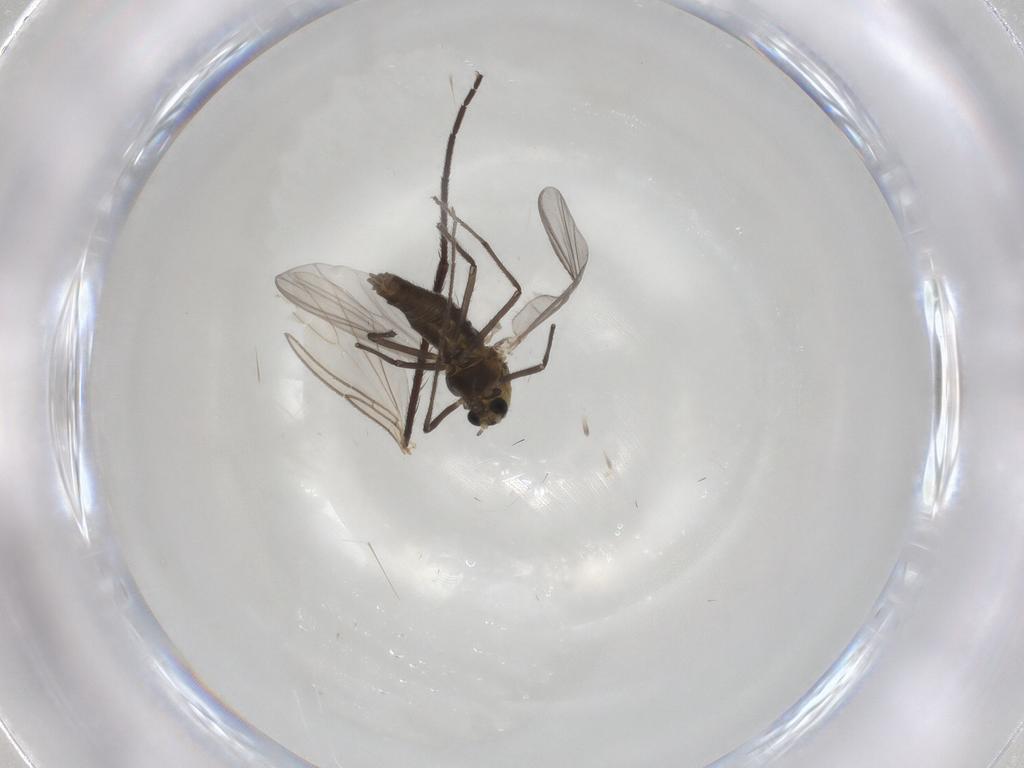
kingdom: Animalia
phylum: Arthropoda
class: Insecta
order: Diptera
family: Chironomidae
